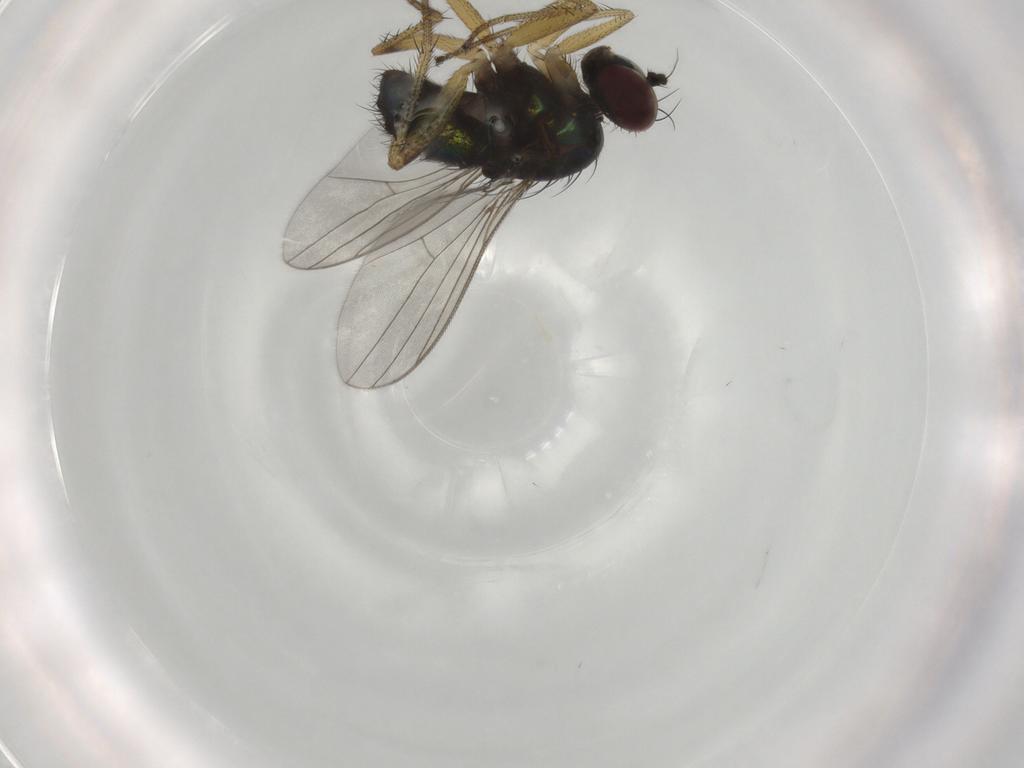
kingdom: Animalia
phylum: Arthropoda
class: Insecta
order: Diptera
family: Dolichopodidae
